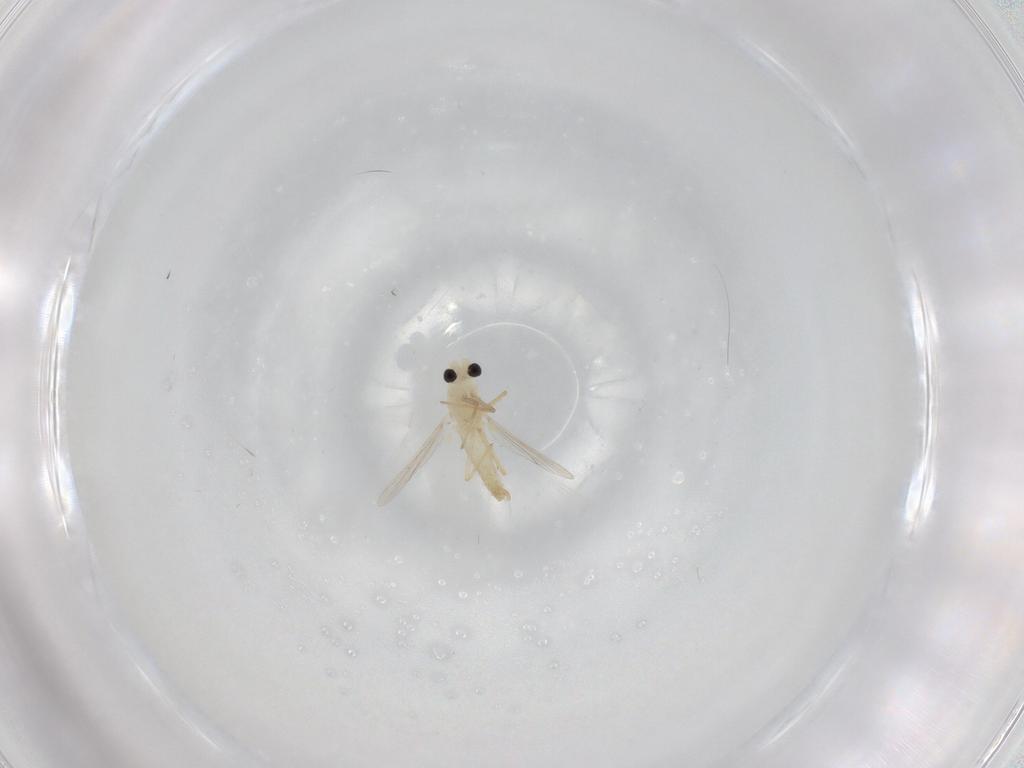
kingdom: Animalia
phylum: Arthropoda
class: Insecta
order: Diptera
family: Chironomidae
